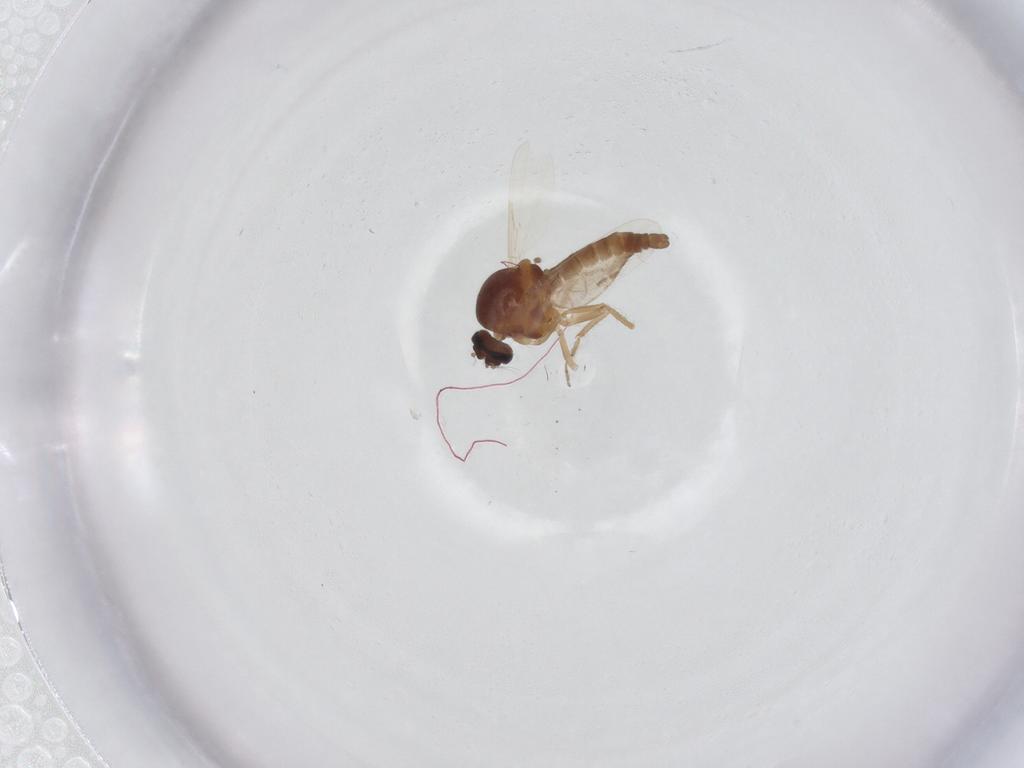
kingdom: Animalia
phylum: Arthropoda
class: Insecta
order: Diptera
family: Ceratopogonidae
